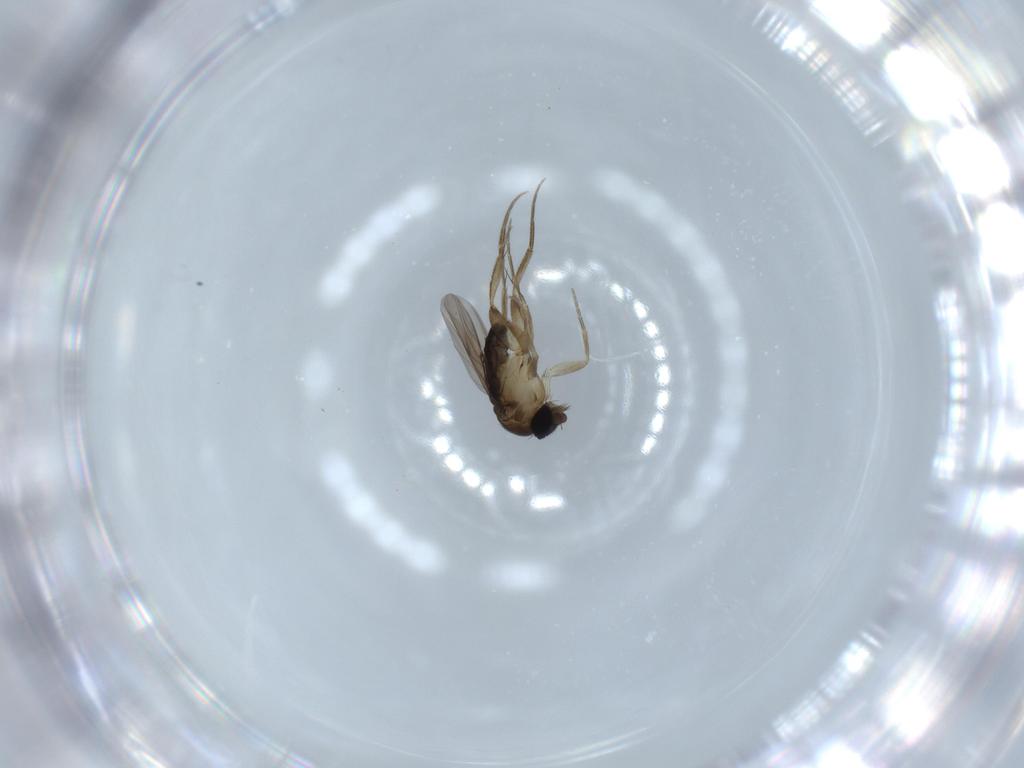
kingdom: Animalia
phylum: Arthropoda
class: Insecta
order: Diptera
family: Phoridae
